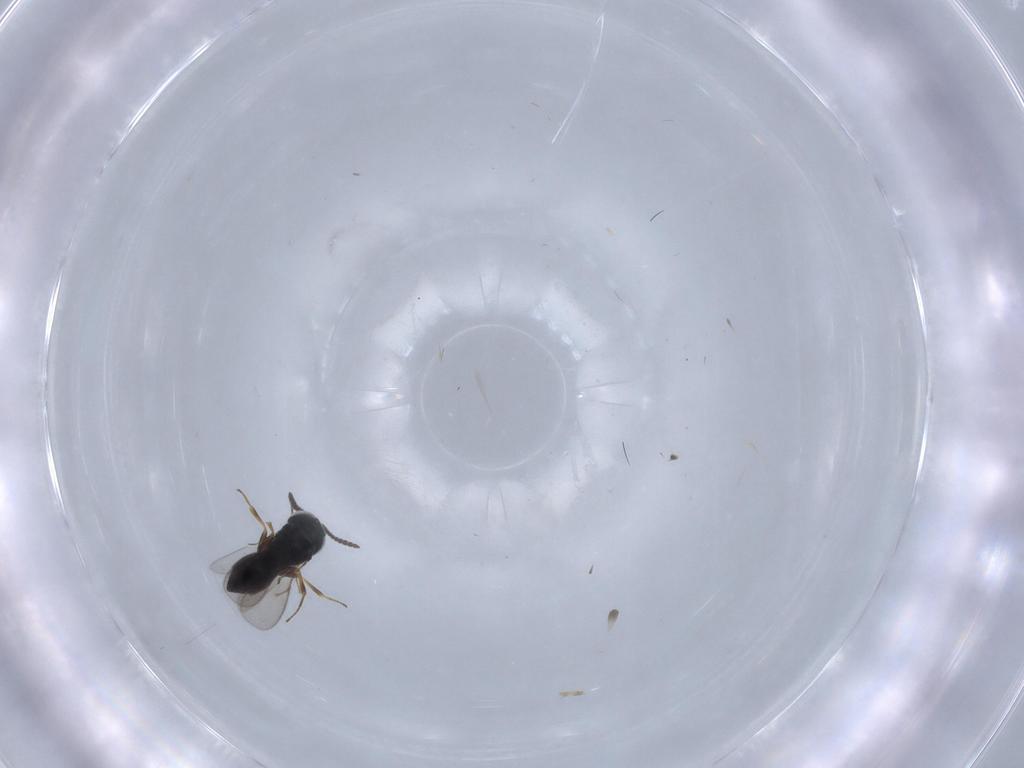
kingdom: Animalia
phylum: Arthropoda
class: Insecta
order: Hymenoptera
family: Scelionidae
